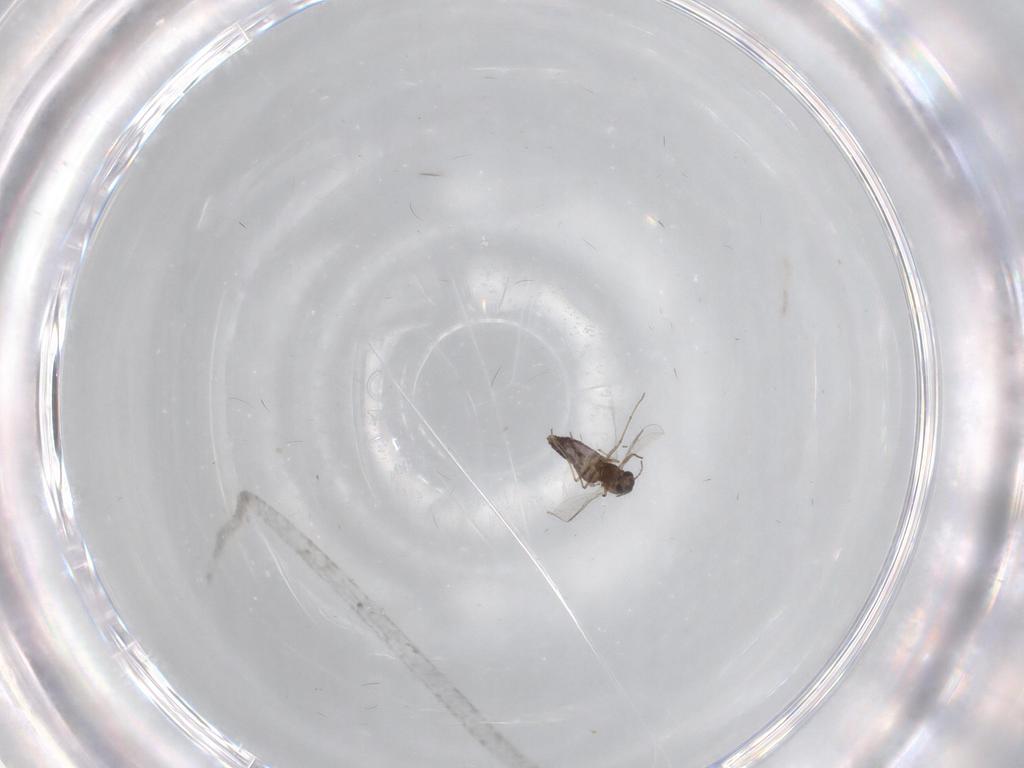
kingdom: Animalia
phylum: Arthropoda
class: Insecta
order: Diptera
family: Chironomidae
